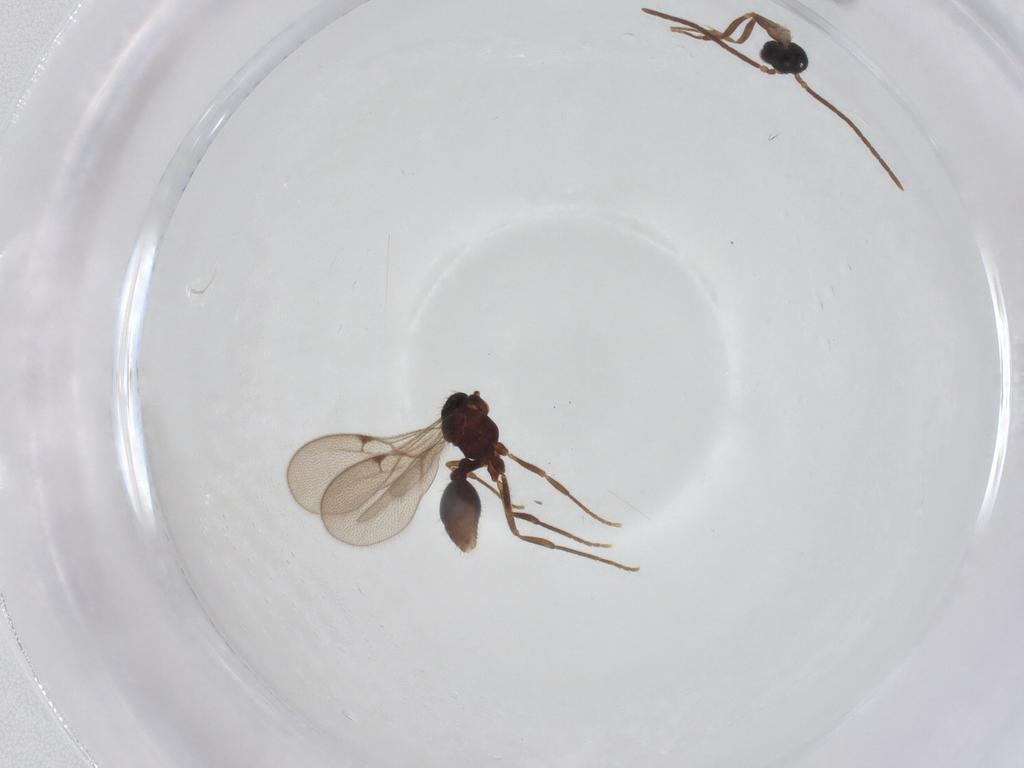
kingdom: Animalia
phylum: Arthropoda
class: Insecta
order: Hymenoptera
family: Formicidae
